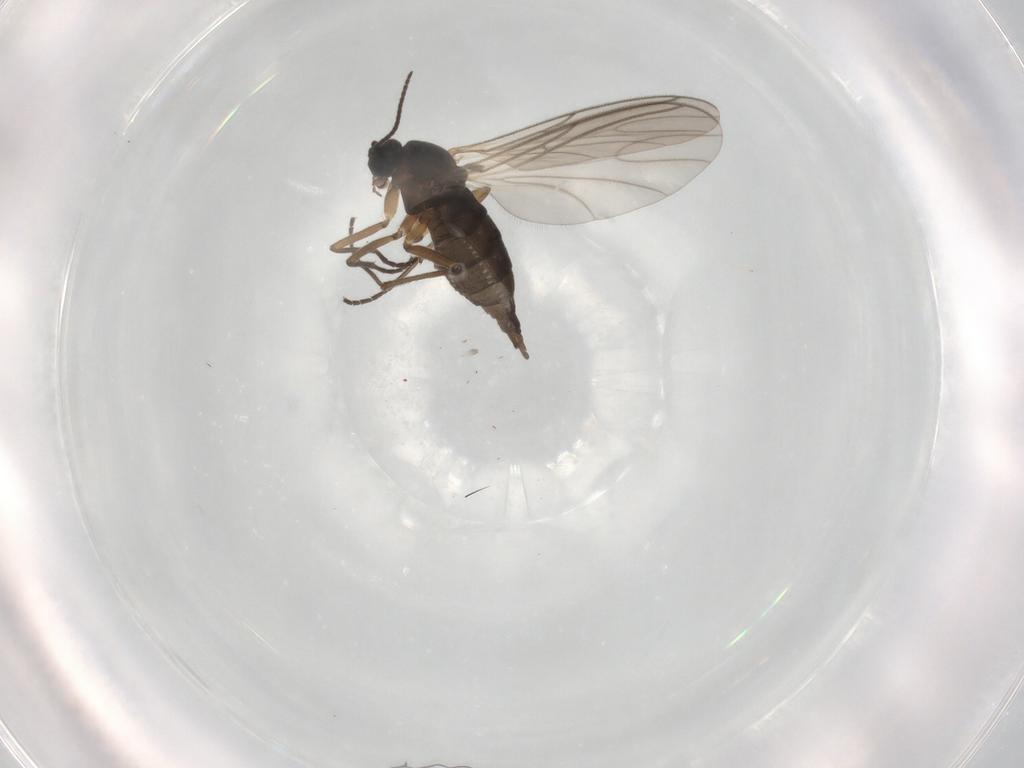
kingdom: Animalia
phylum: Arthropoda
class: Insecta
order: Diptera
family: Sciaridae
